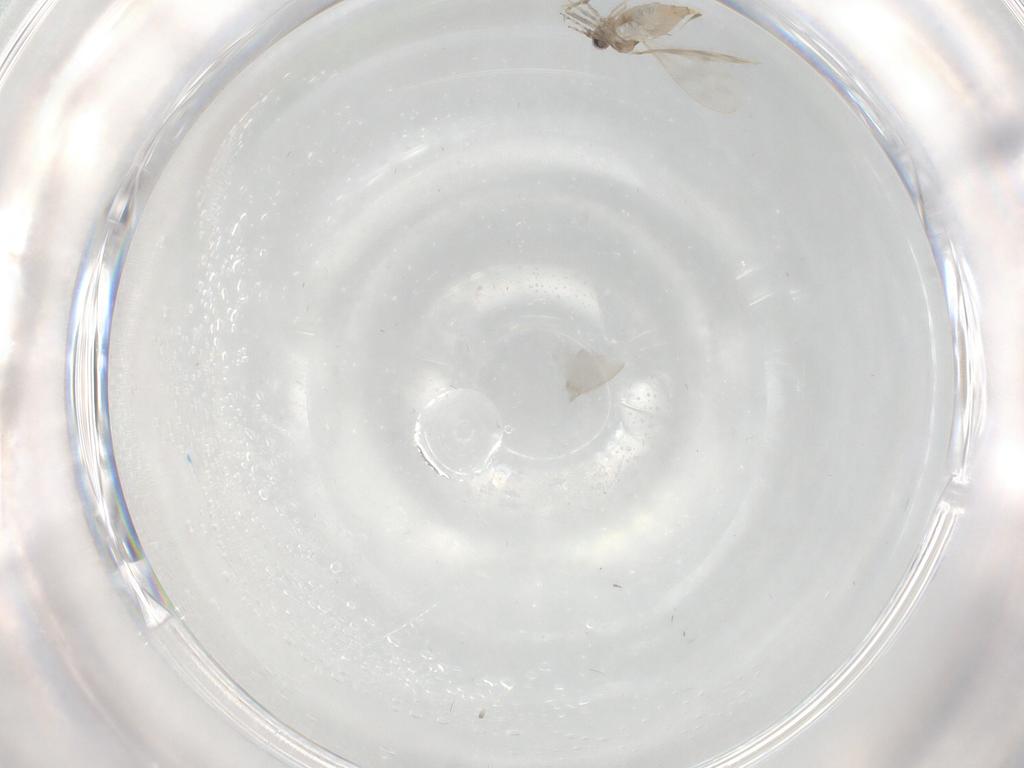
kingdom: Animalia
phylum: Arthropoda
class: Insecta
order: Diptera
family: Cecidomyiidae
